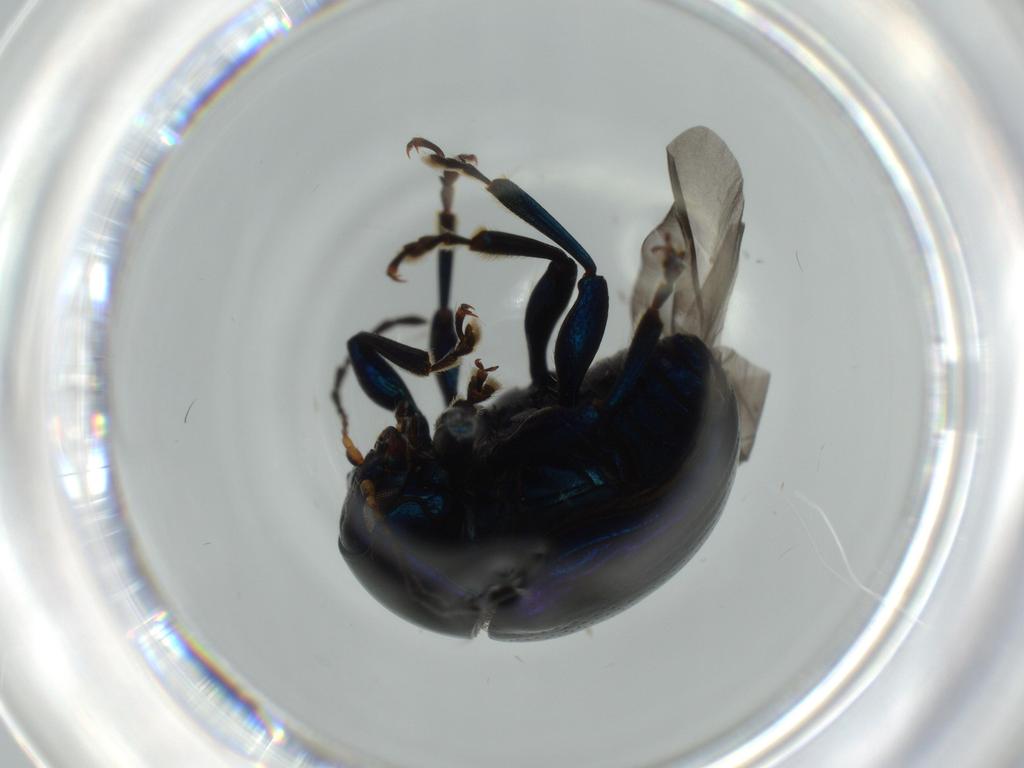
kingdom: Animalia
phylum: Arthropoda
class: Insecta
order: Coleoptera
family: Chrysomelidae
